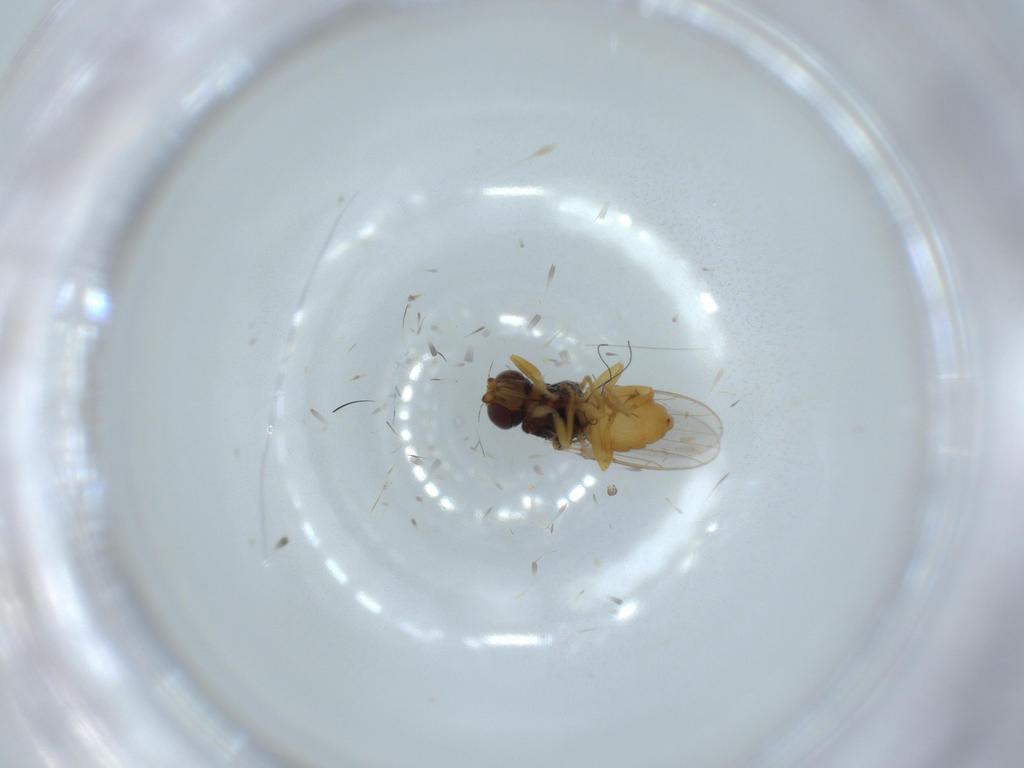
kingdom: Animalia
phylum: Arthropoda
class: Insecta
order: Diptera
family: Chloropidae
